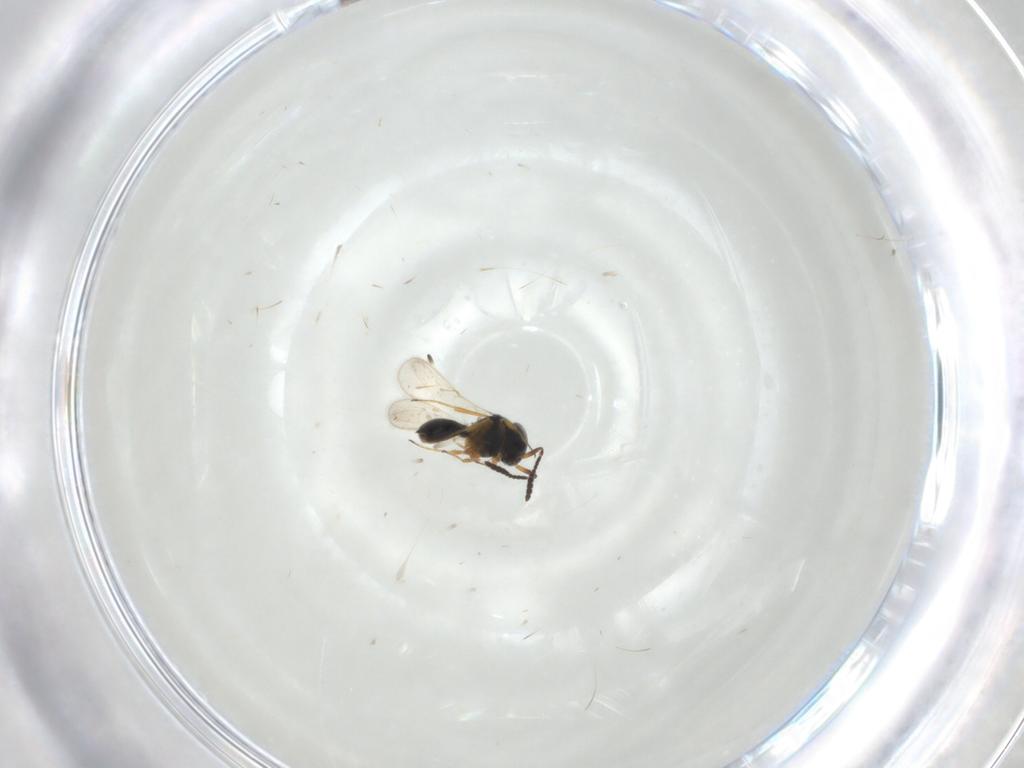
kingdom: Animalia
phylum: Arthropoda
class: Insecta
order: Hymenoptera
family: Scelionidae
